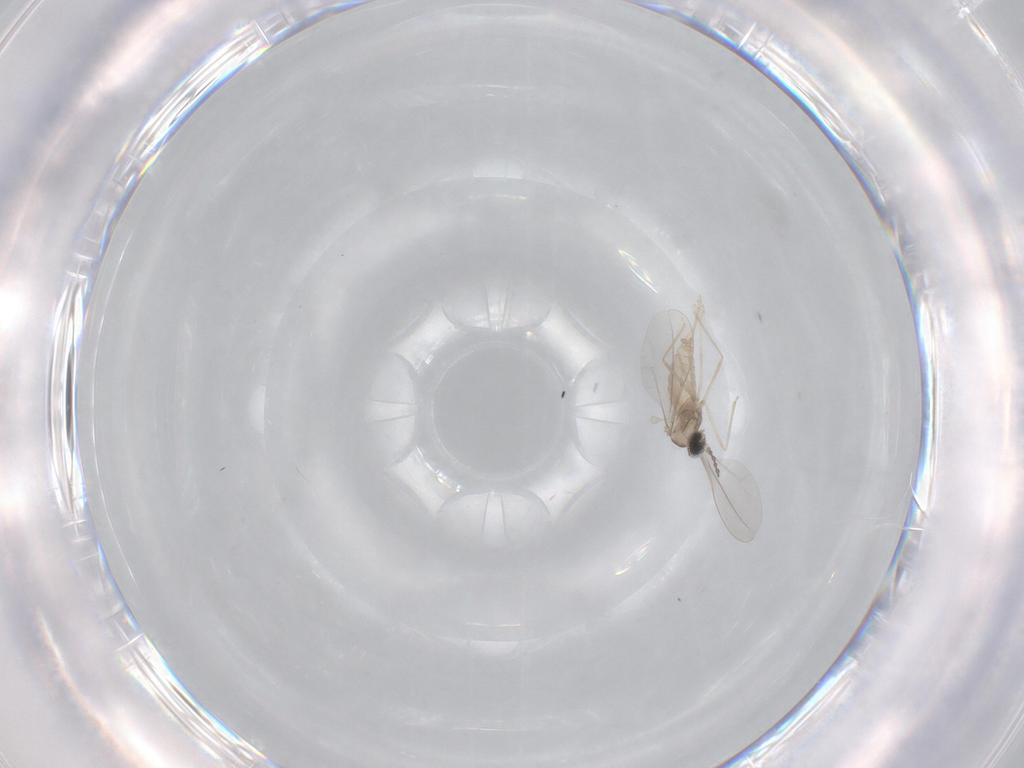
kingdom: Animalia
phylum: Arthropoda
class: Insecta
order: Diptera
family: Cecidomyiidae
